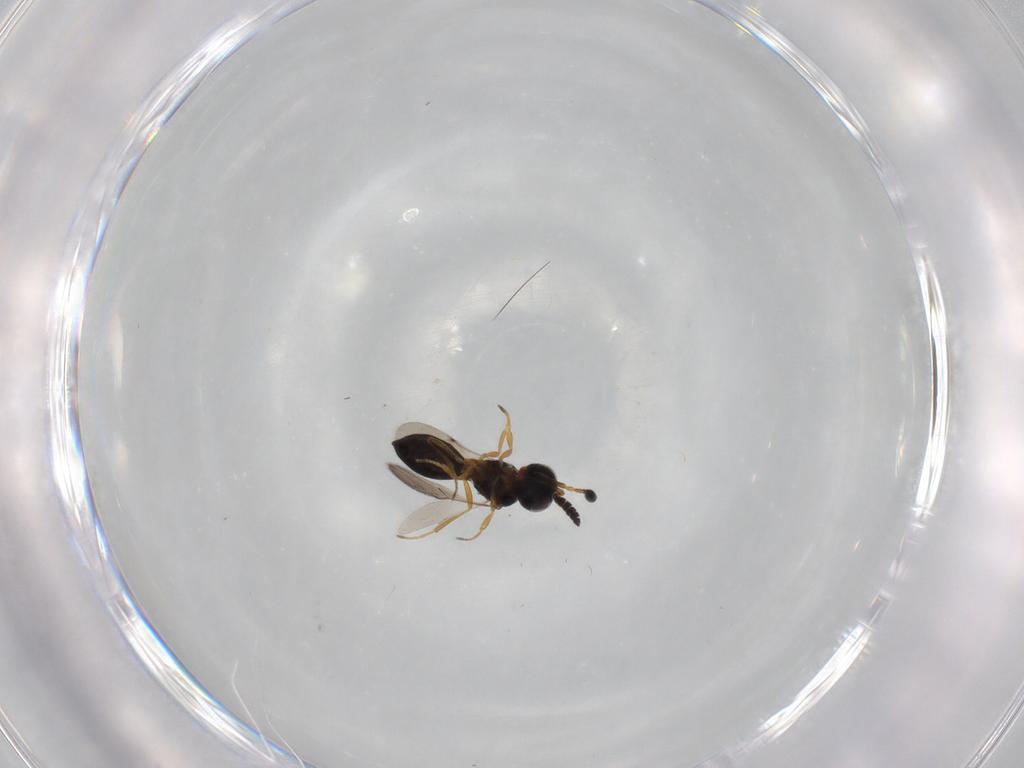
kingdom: Animalia
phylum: Arthropoda
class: Insecta
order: Hymenoptera
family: Scelionidae
